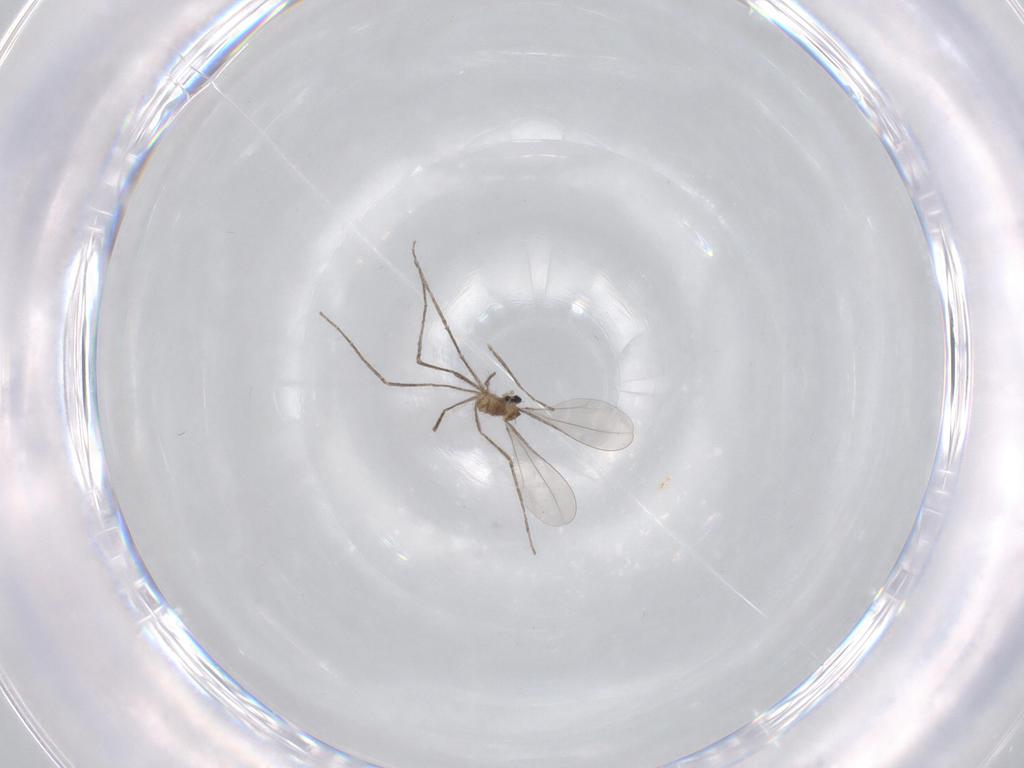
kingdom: Animalia
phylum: Arthropoda
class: Insecta
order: Diptera
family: Cecidomyiidae
